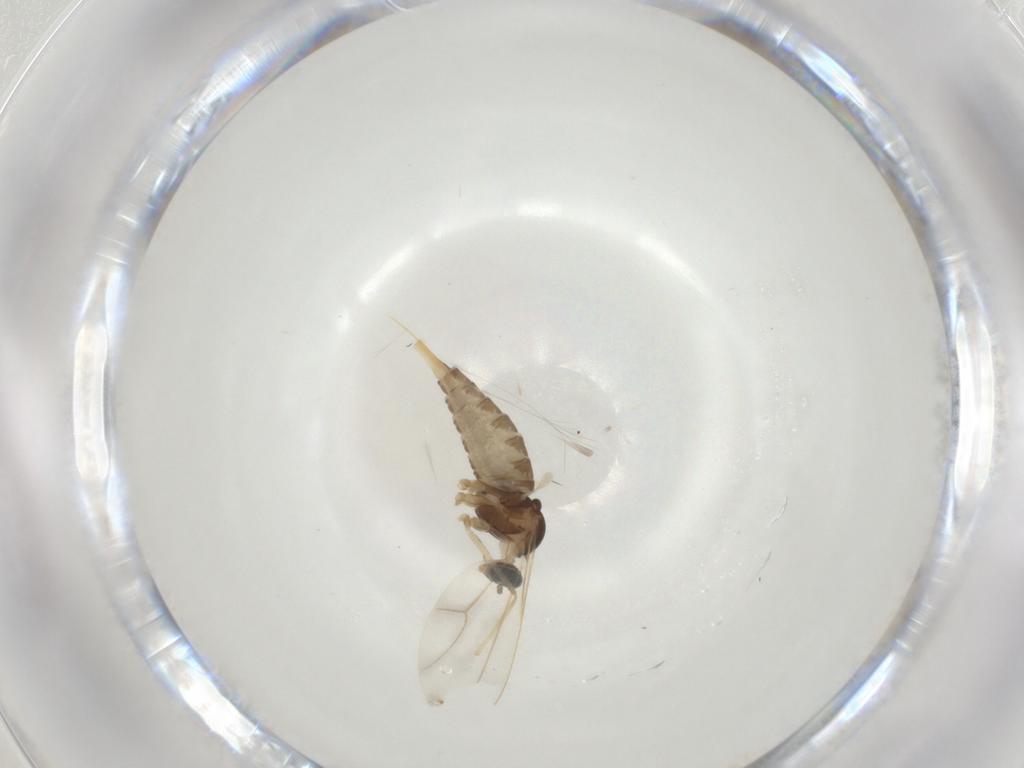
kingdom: Animalia
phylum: Arthropoda
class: Insecta
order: Diptera
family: Cecidomyiidae
